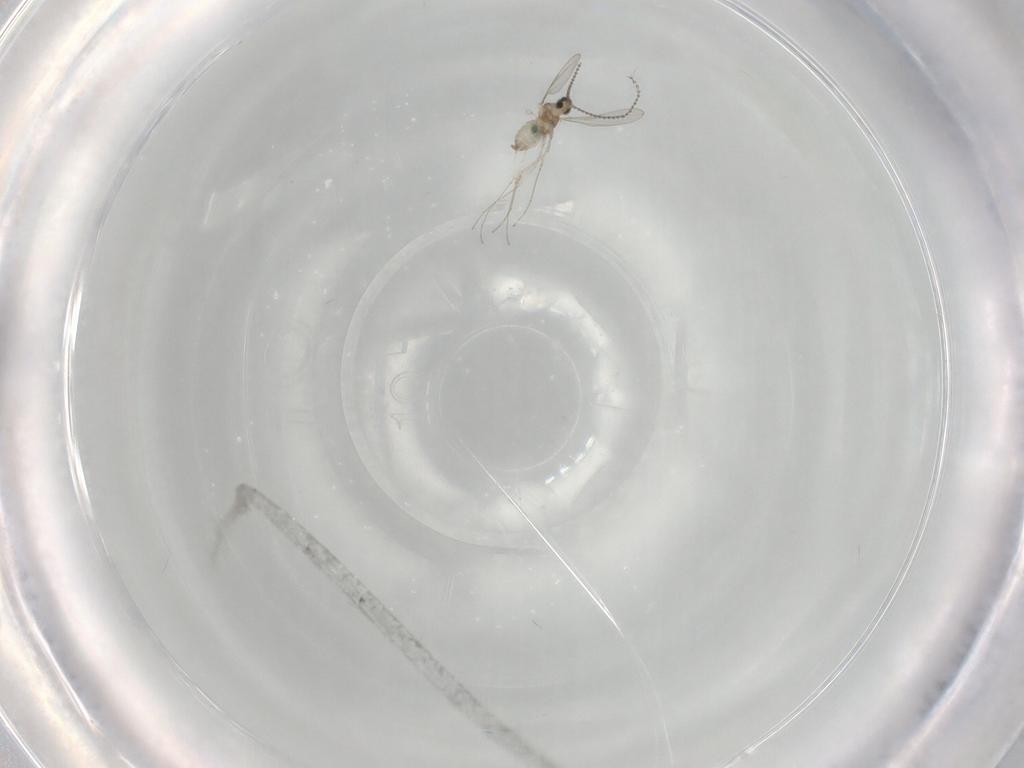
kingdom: Animalia
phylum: Arthropoda
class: Insecta
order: Diptera
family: Cecidomyiidae
